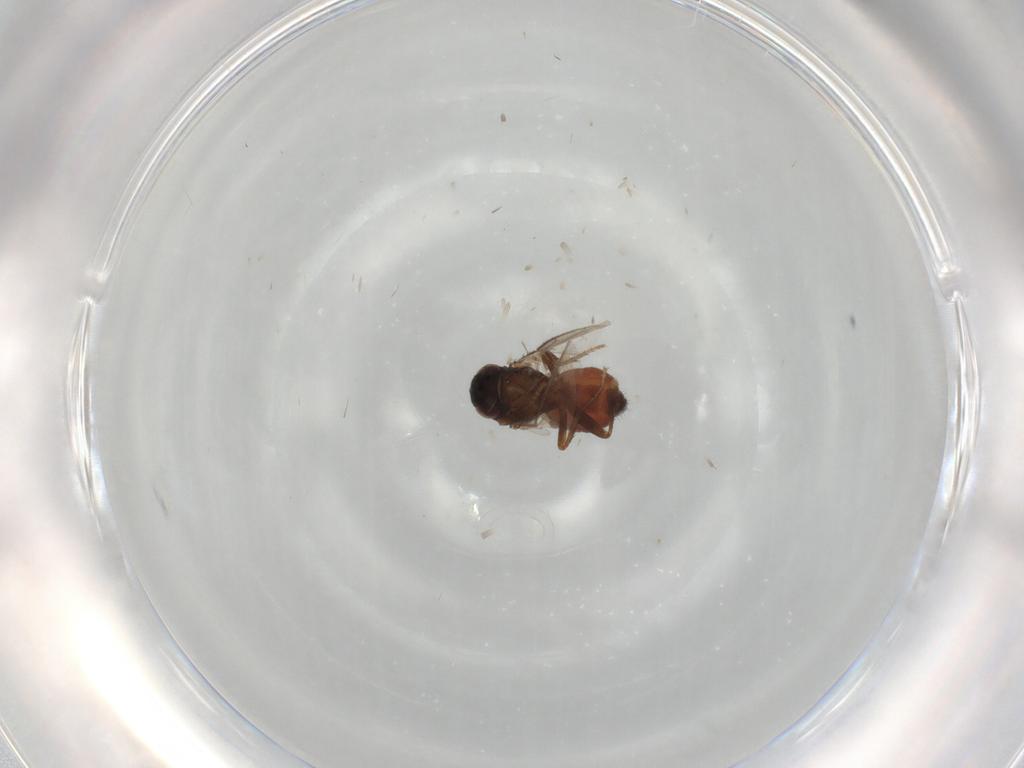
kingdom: Animalia
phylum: Arthropoda
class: Insecta
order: Diptera
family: Sphaeroceridae
